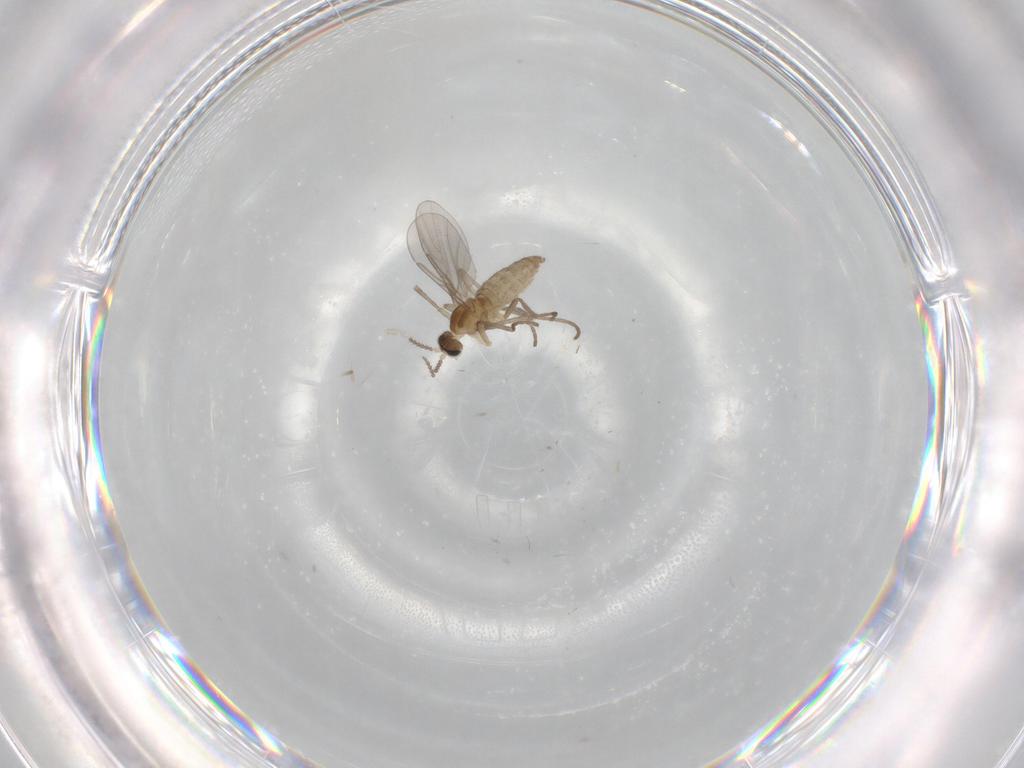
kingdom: Animalia
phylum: Arthropoda
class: Insecta
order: Diptera
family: Cecidomyiidae
